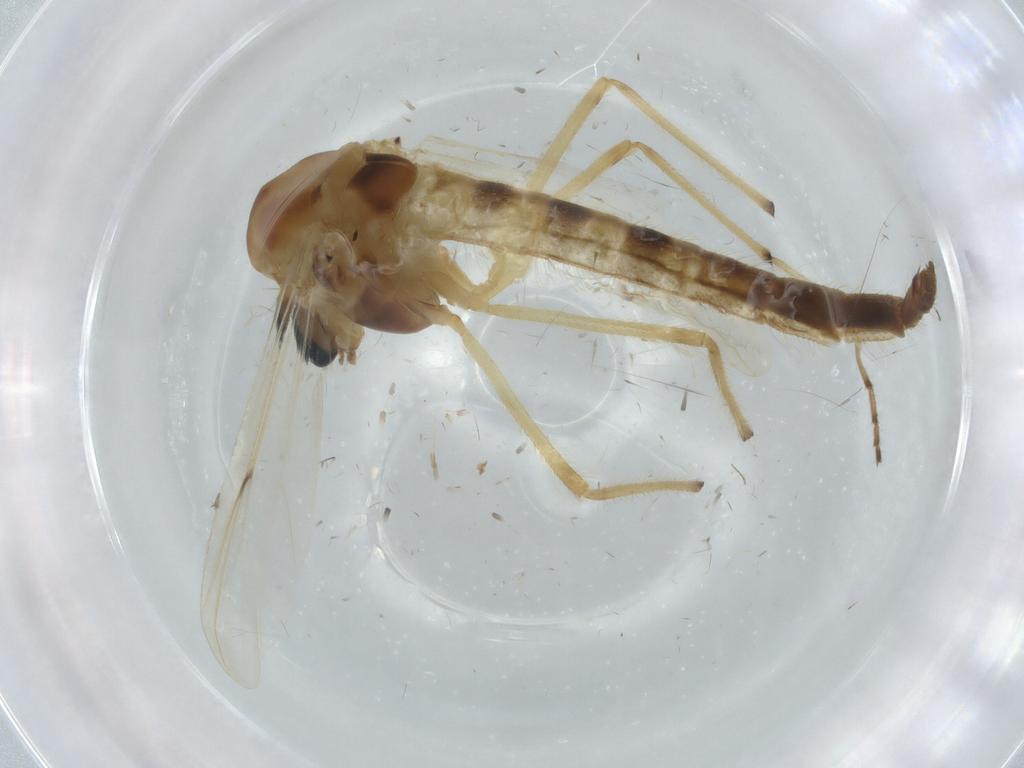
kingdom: Animalia
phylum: Arthropoda
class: Insecta
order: Diptera
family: Chironomidae
